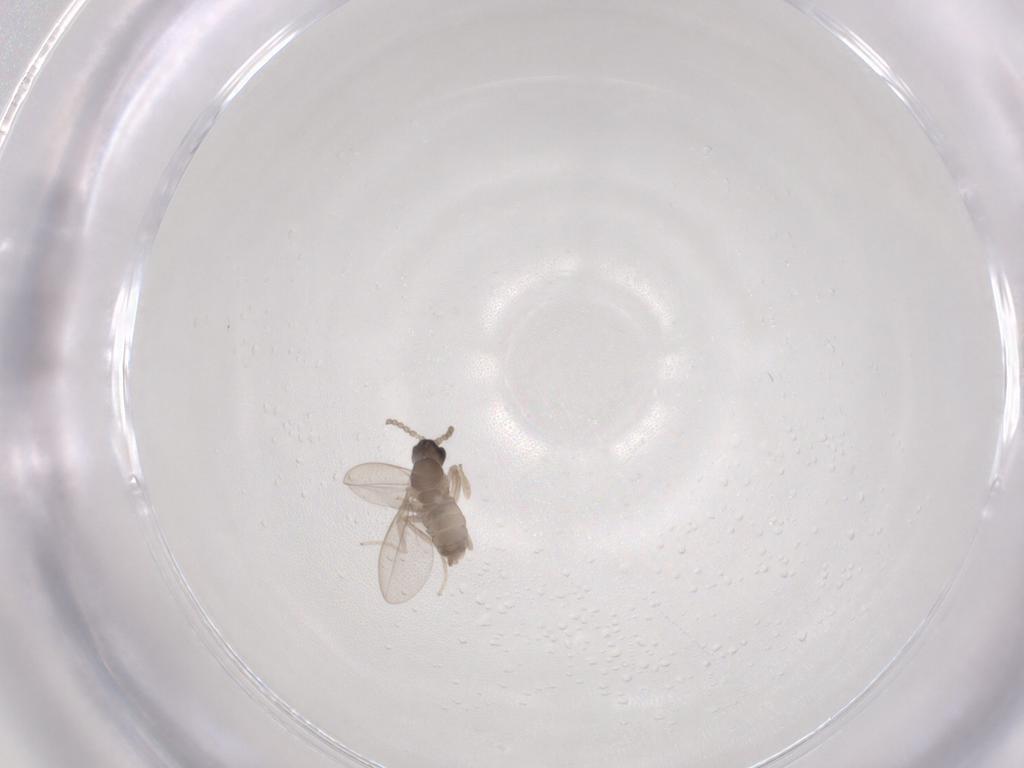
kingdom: Animalia
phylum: Arthropoda
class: Insecta
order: Diptera
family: Cecidomyiidae
